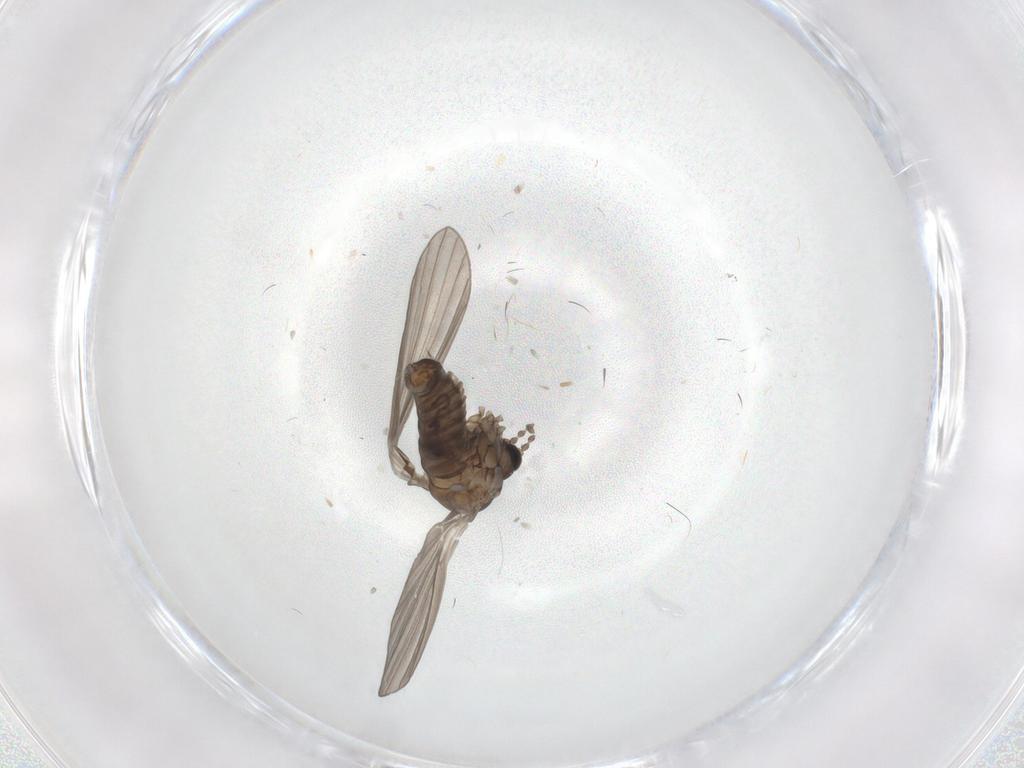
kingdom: Animalia
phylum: Arthropoda
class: Insecta
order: Diptera
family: Psychodidae
